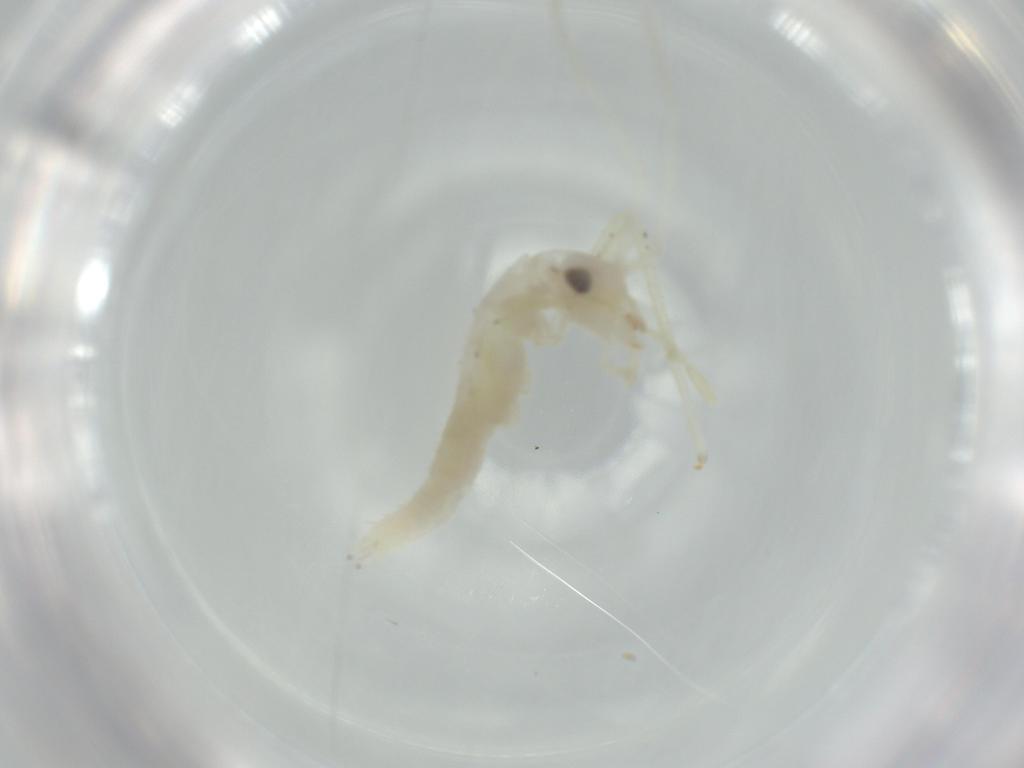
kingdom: Animalia
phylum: Arthropoda
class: Insecta
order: Orthoptera
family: Oecanthidae
